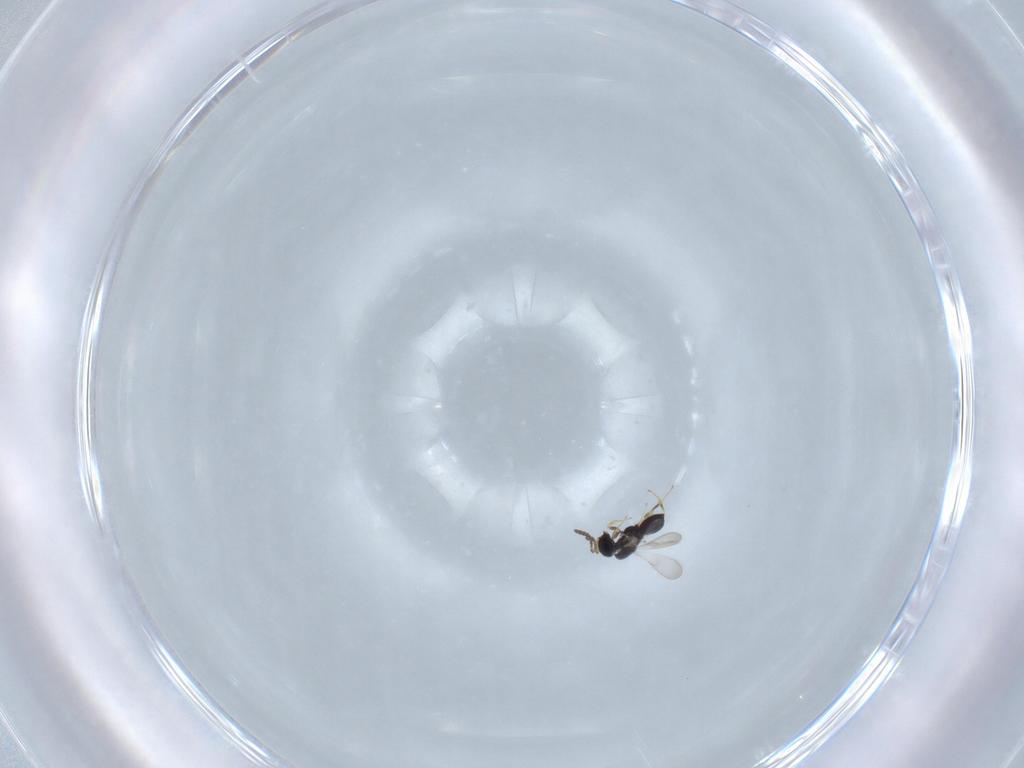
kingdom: Animalia
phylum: Arthropoda
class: Insecta
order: Hymenoptera
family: Scelionidae
